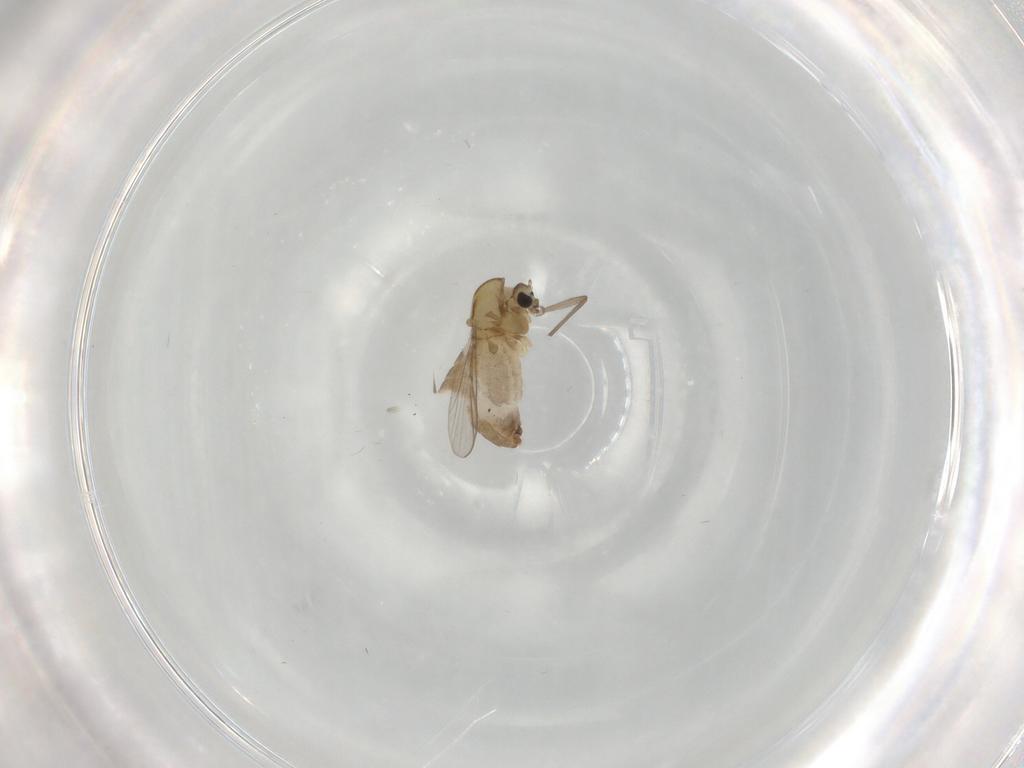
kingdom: Animalia
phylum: Arthropoda
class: Insecta
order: Diptera
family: Chironomidae
